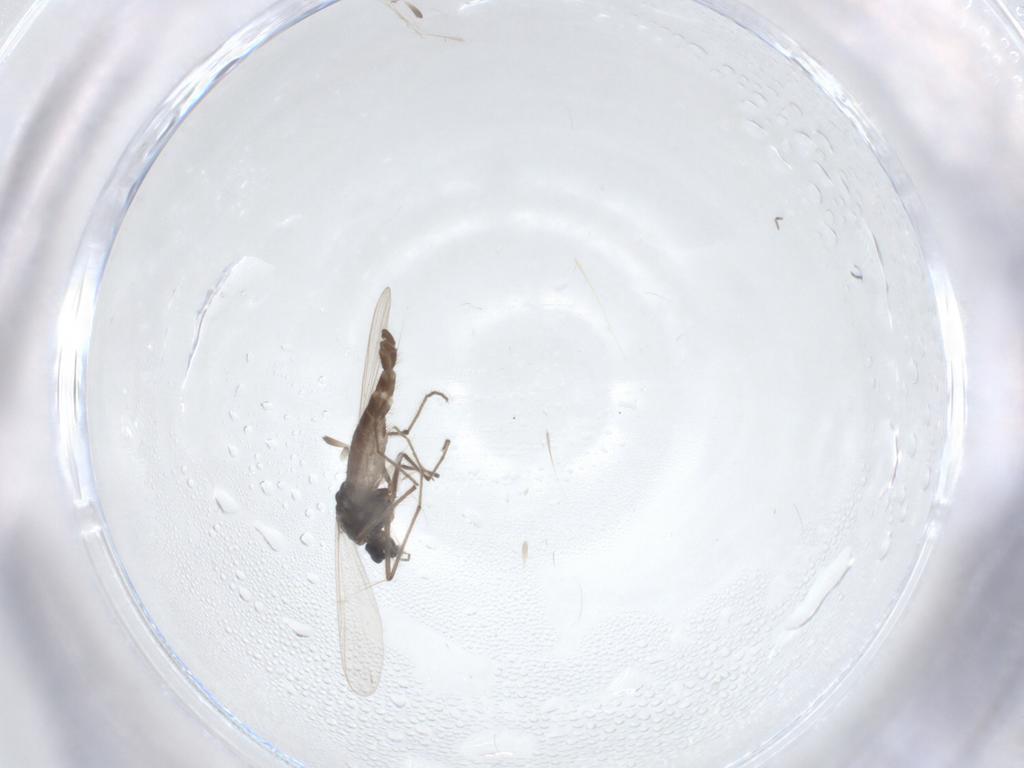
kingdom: Animalia
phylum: Arthropoda
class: Insecta
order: Diptera
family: Chironomidae
